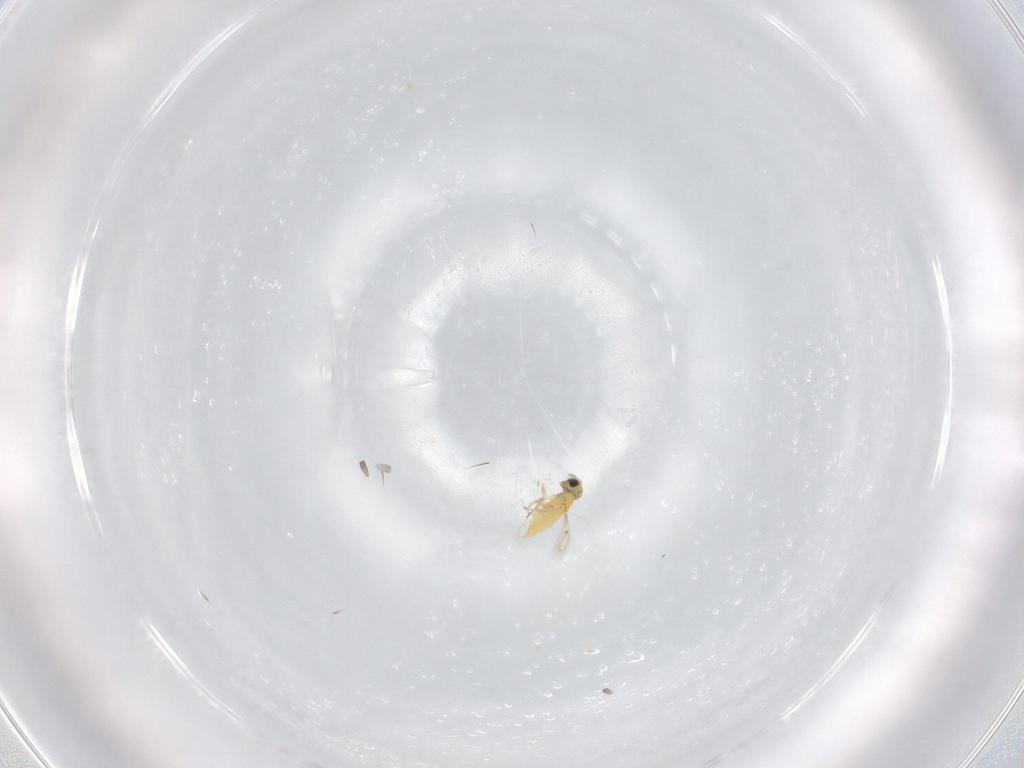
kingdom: Animalia
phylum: Arthropoda
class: Insecta
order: Hymenoptera
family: Trichogrammatidae
